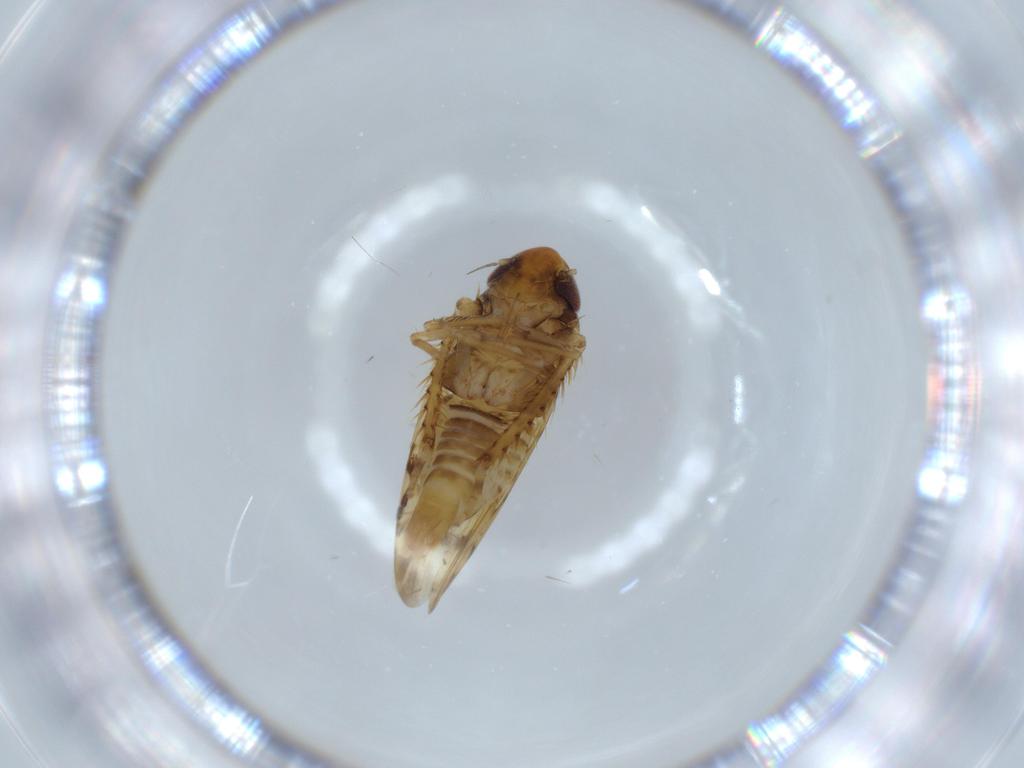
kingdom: Animalia
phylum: Arthropoda
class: Insecta
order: Hemiptera
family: Cicadellidae
